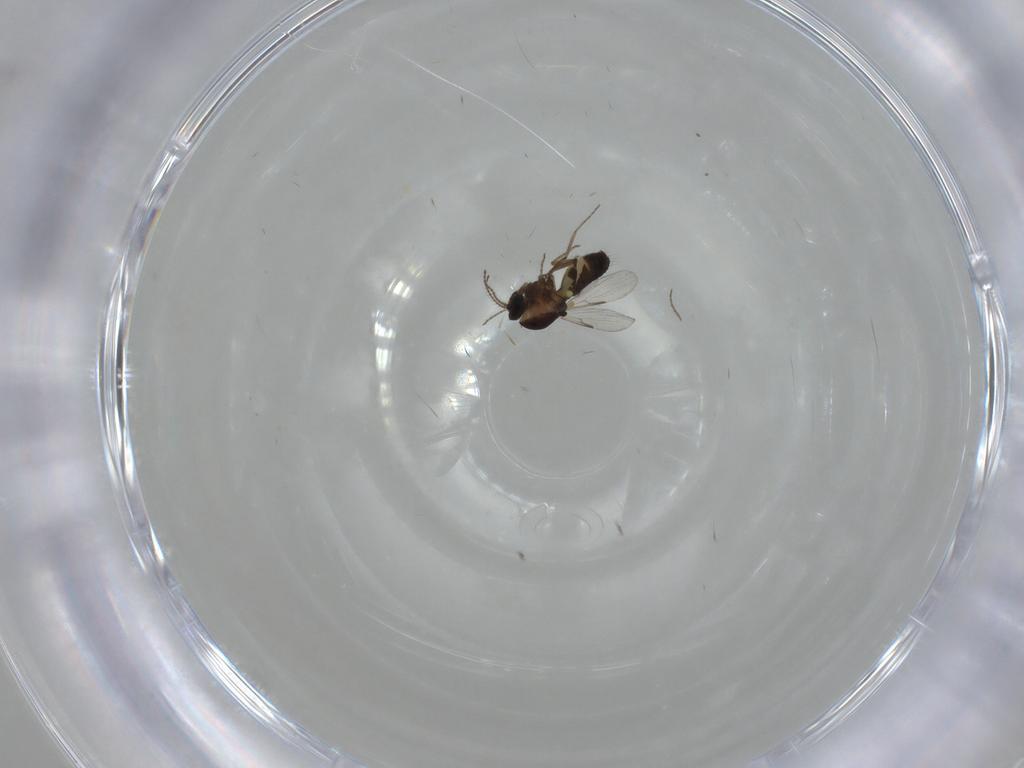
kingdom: Animalia
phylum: Arthropoda
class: Insecta
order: Diptera
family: Ceratopogonidae
